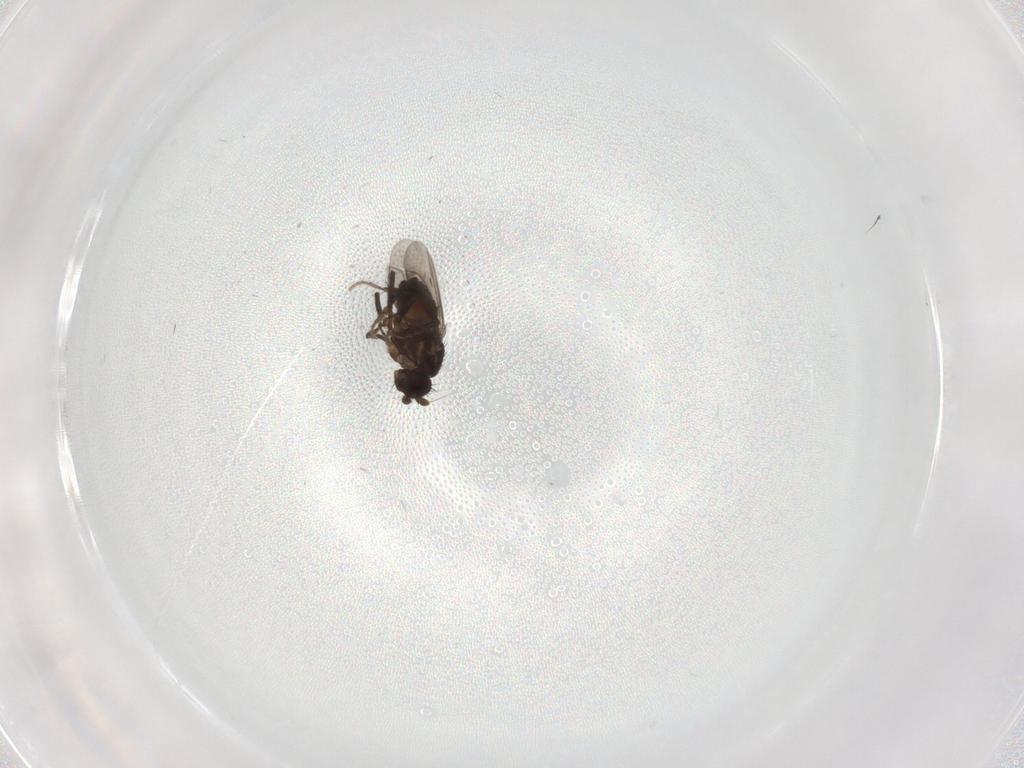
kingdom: Animalia
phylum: Arthropoda
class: Insecta
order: Diptera
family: Sphaeroceridae
